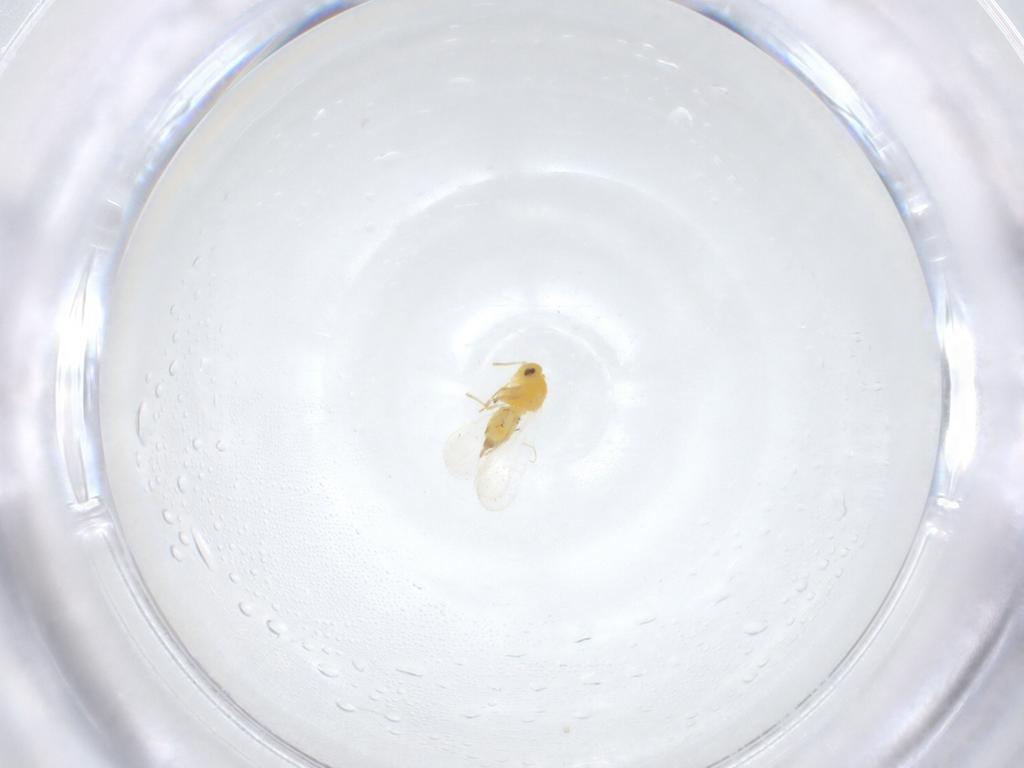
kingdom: Animalia
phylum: Arthropoda
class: Insecta
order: Hemiptera
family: Aleyrodidae
